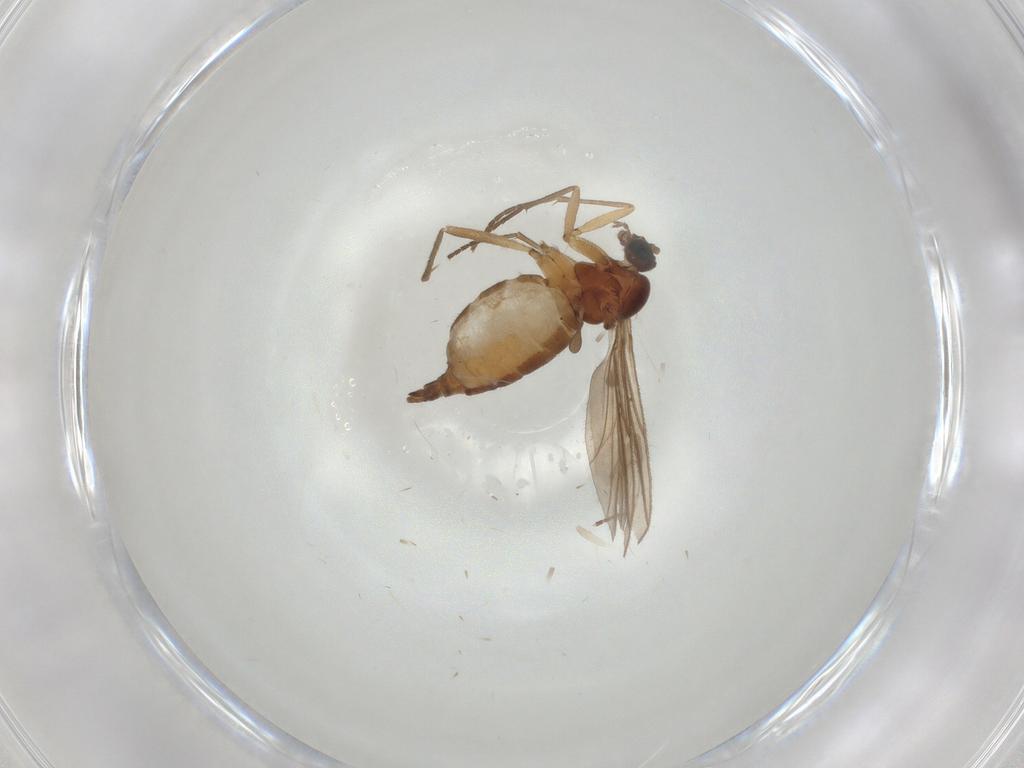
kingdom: Animalia
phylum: Arthropoda
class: Insecta
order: Diptera
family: Sciaridae
